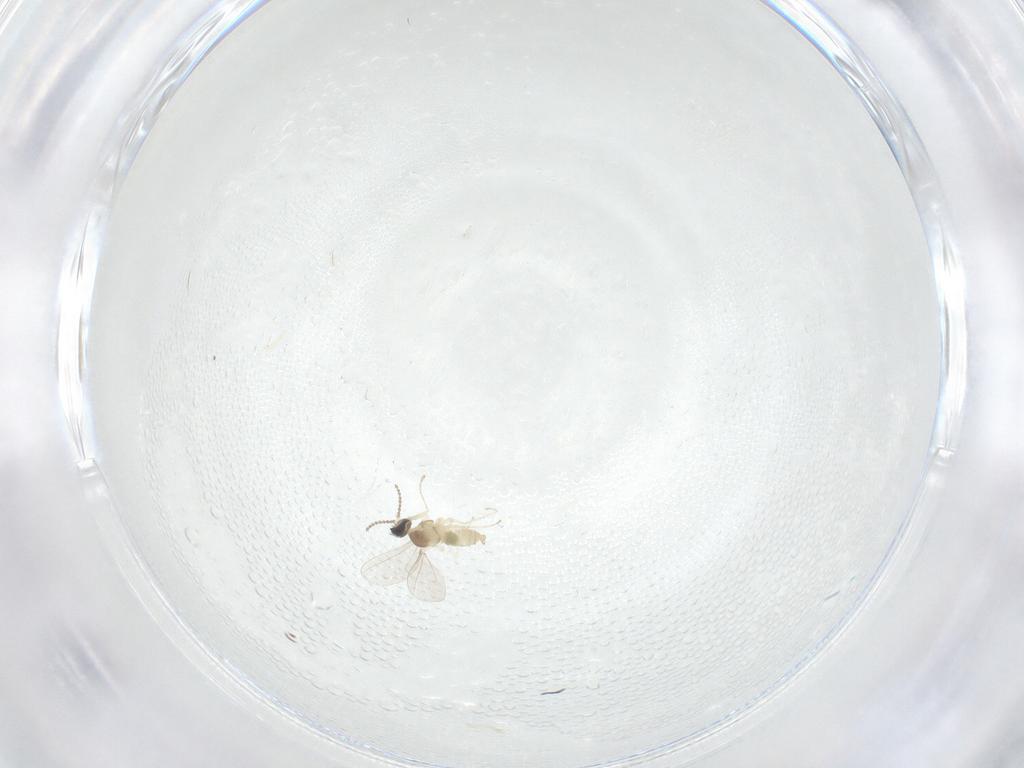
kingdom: Animalia
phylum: Arthropoda
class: Insecta
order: Diptera
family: Cecidomyiidae
